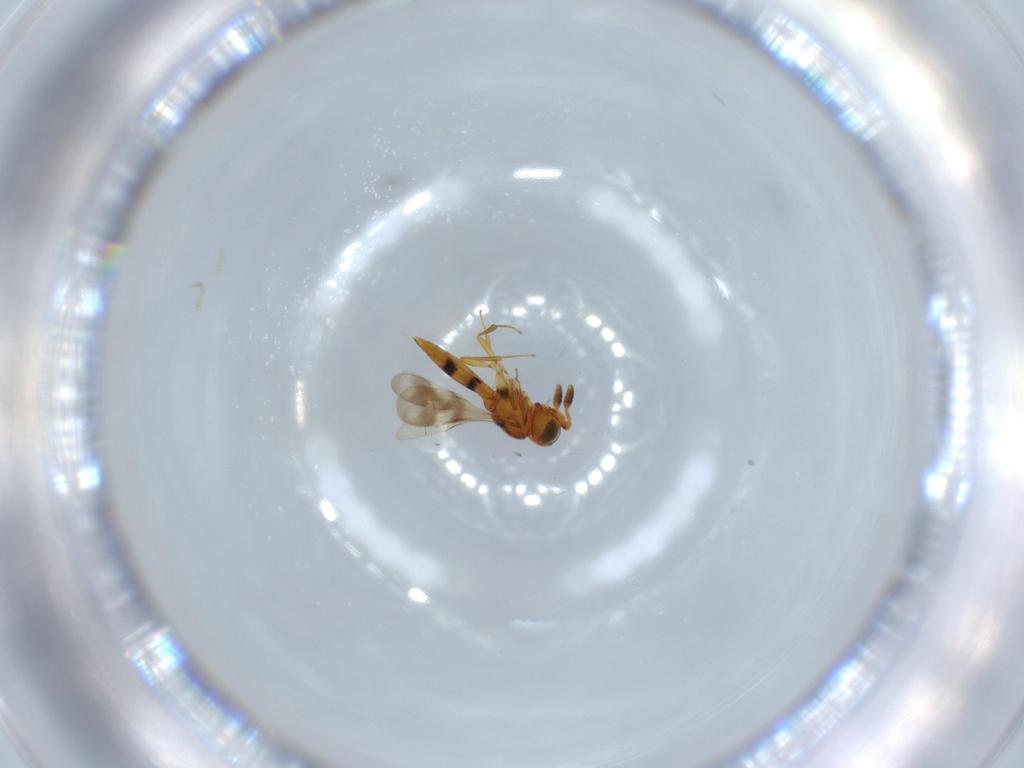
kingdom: Animalia
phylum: Arthropoda
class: Insecta
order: Hymenoptera
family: Scelionidae
